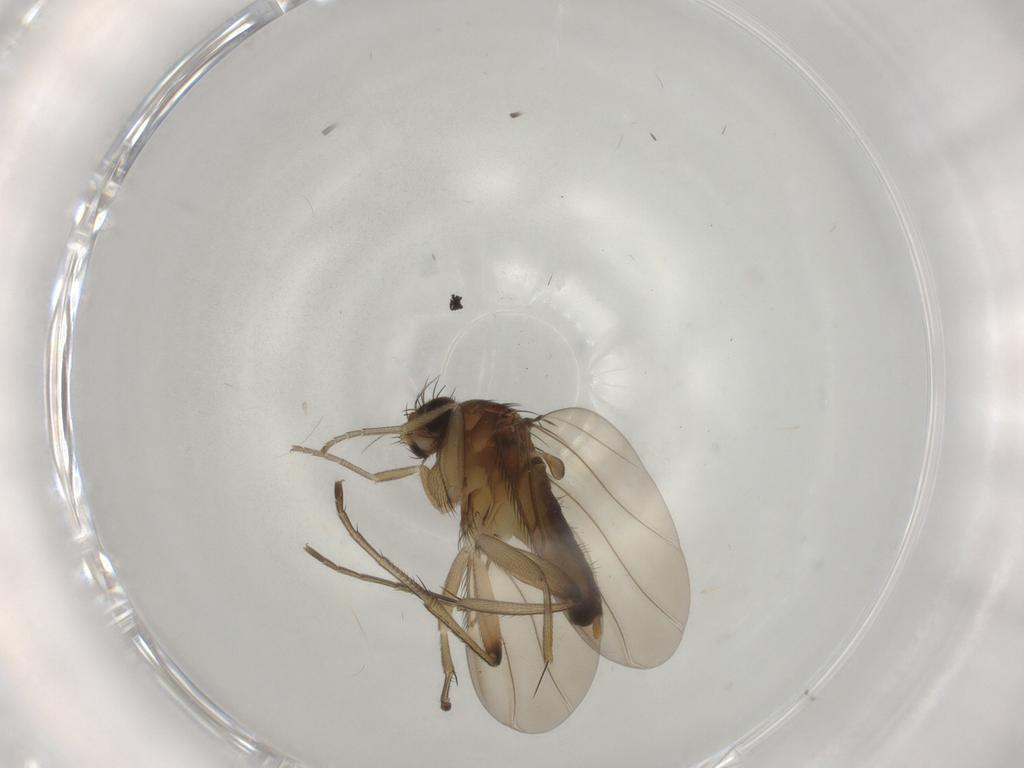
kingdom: Animalia
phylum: Arthropoda
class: Insecta
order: Diptera
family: Phoridae
